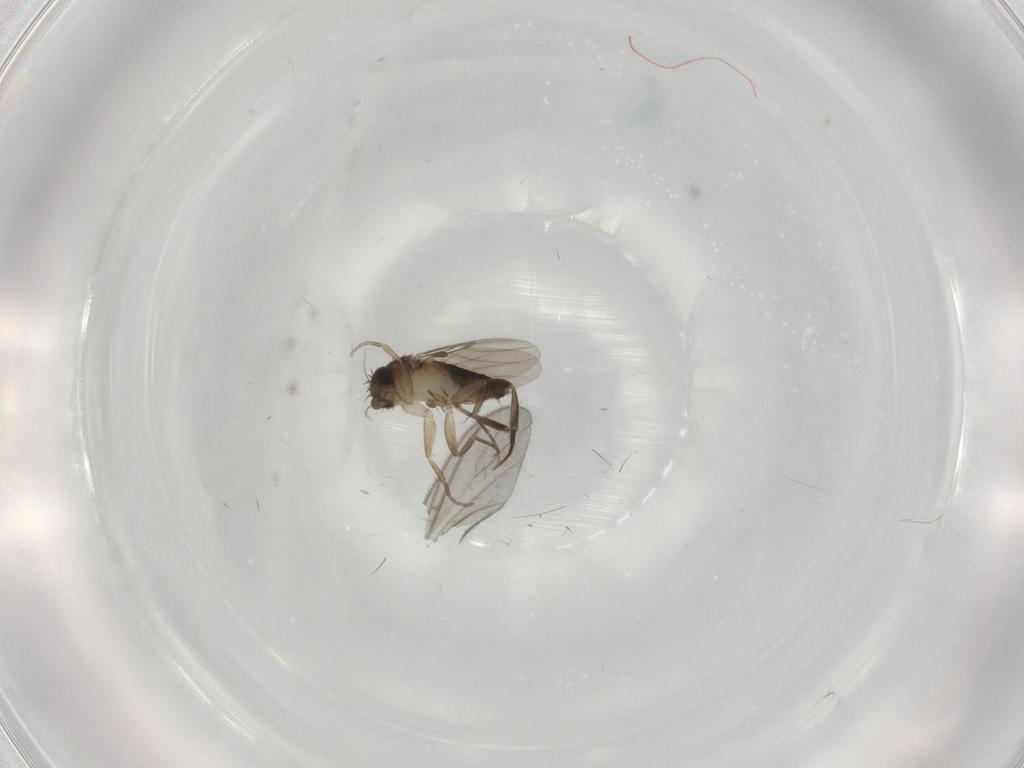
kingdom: Animalia
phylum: Arthropoda
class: Insecta
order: Diptera
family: Phoridae
